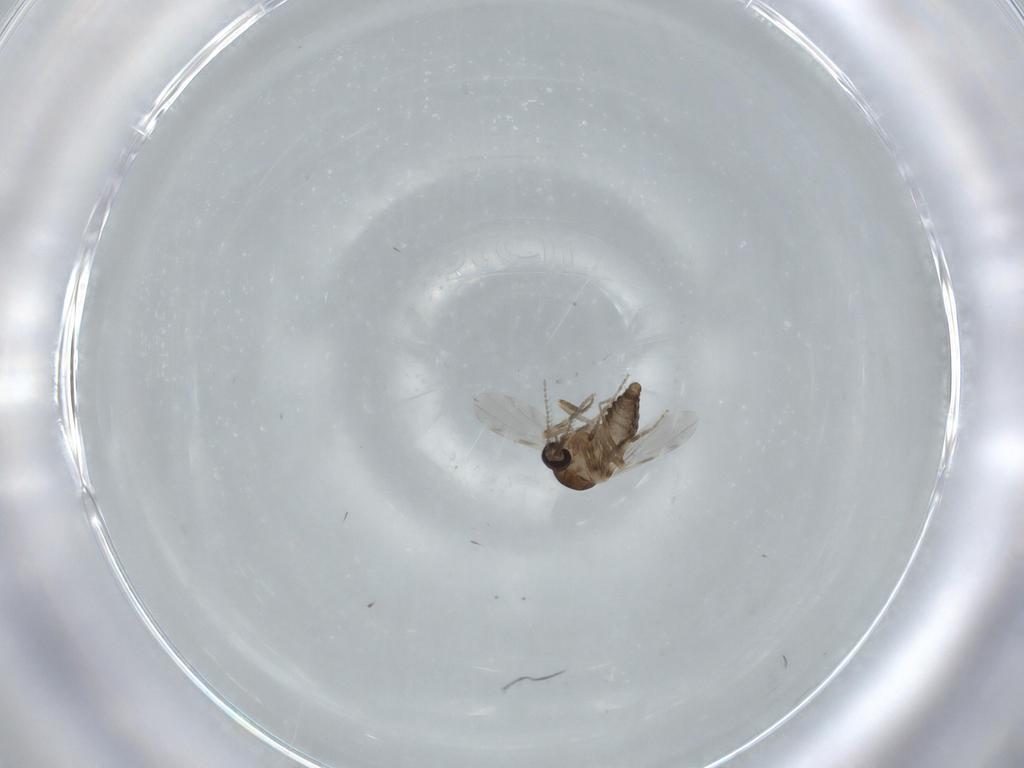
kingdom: Animalia
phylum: Arthropoda
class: Insecta
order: Diptera
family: Ceratopogonidae
